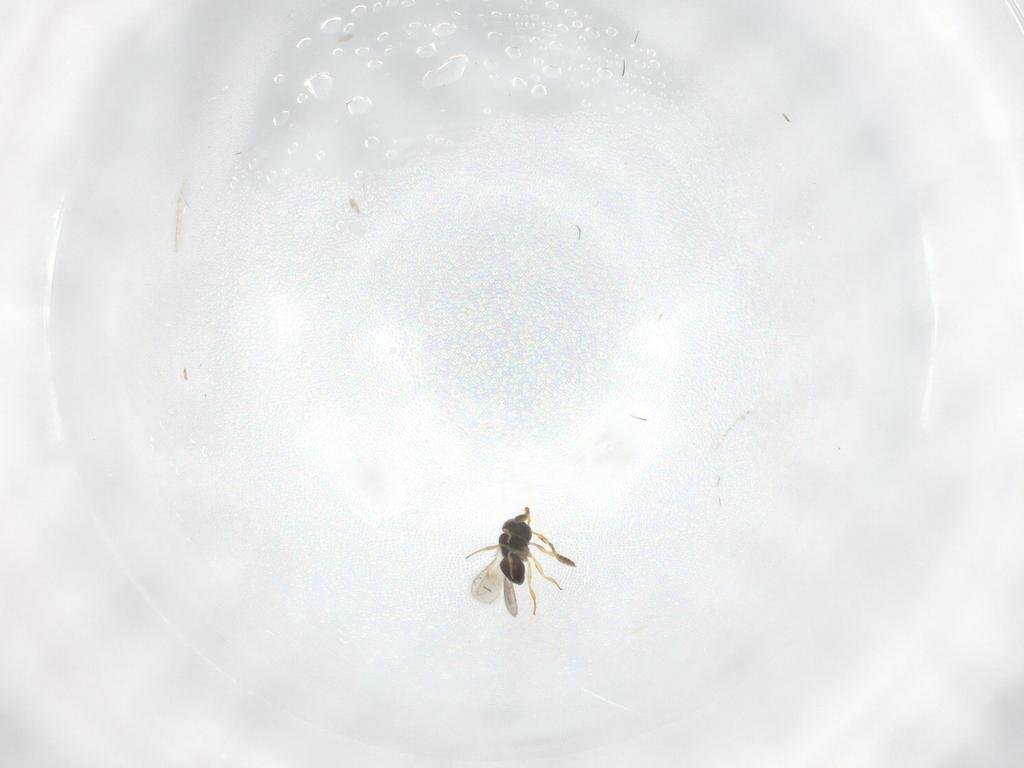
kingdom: Animalia
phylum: Arthropoda
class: Insecta
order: Hymenoptera
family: Scelionidae
